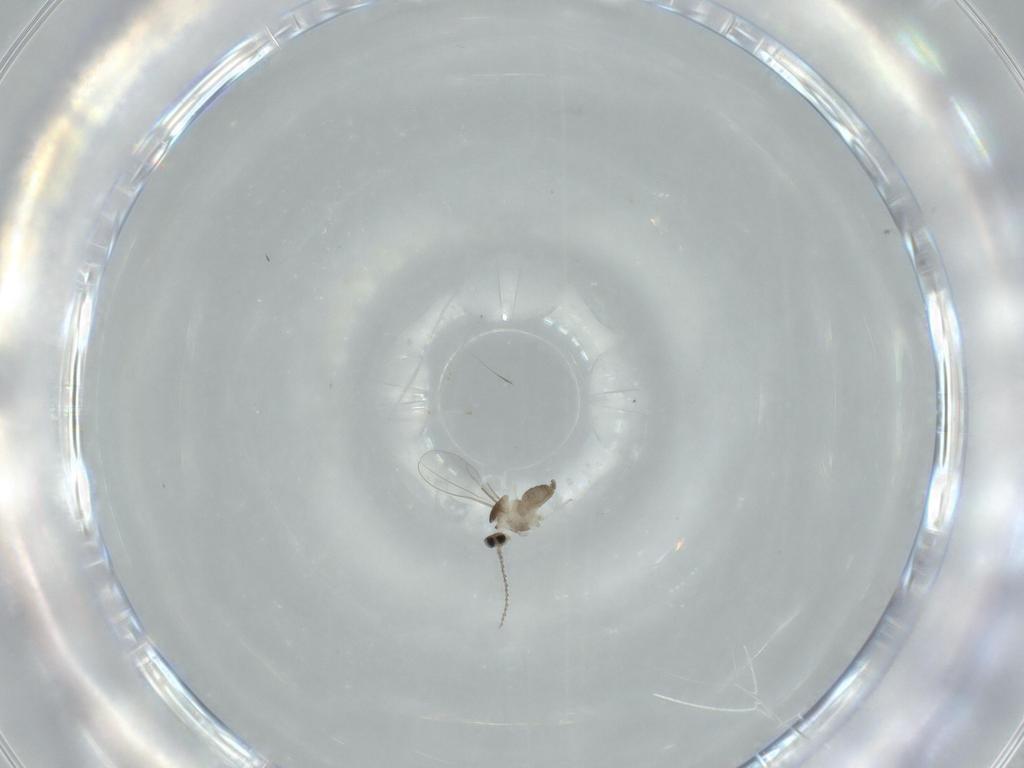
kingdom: Animalia
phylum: Arthropoda
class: Insecta
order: Diptera
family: Cecidomyiidae
